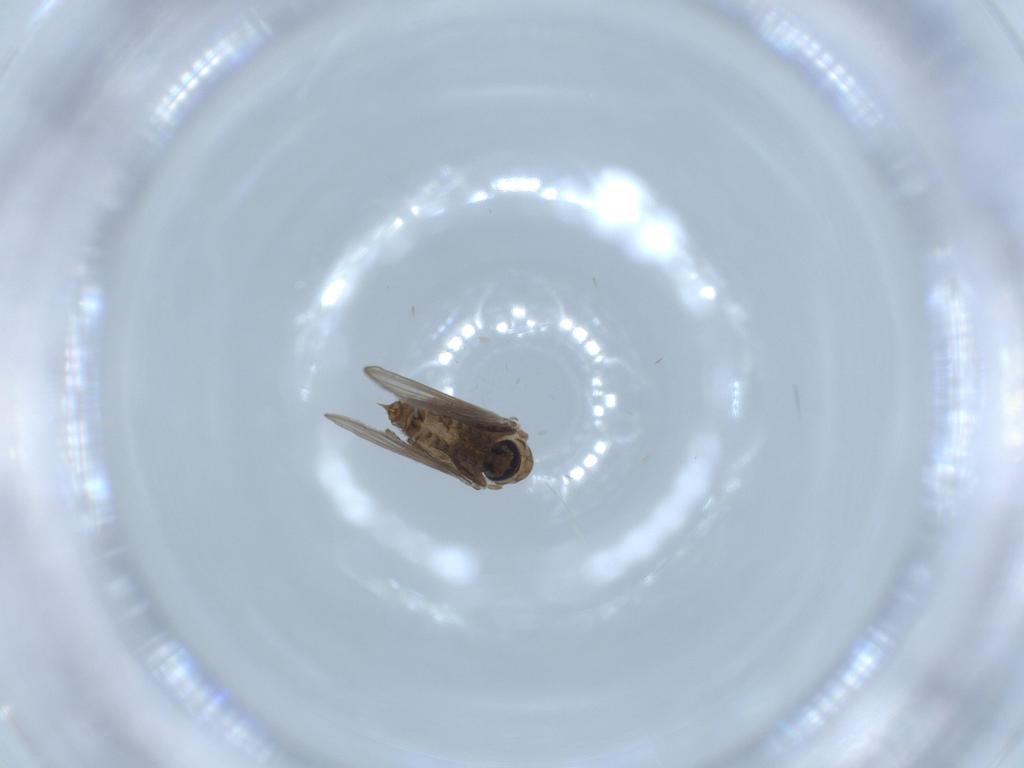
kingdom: Animalia
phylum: Arthropoda
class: Insecta
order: Diptera
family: Psychodidae
